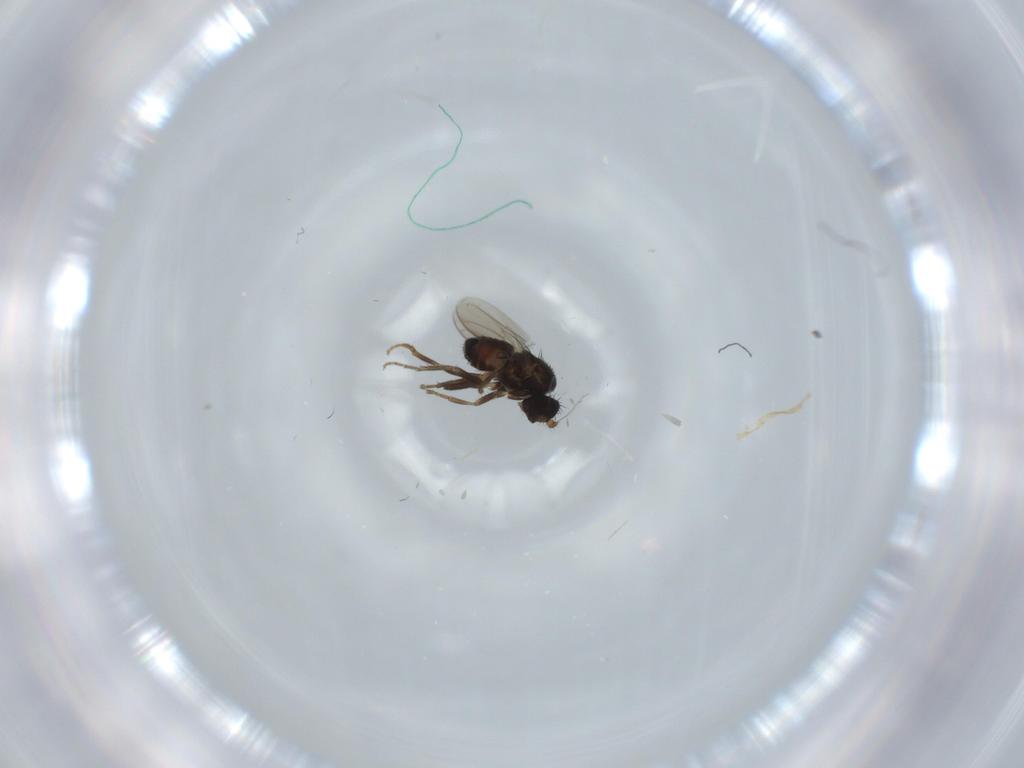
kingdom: Animalia
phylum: Arthropoda
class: Insecta
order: Diptera
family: Sphaeroceridae
